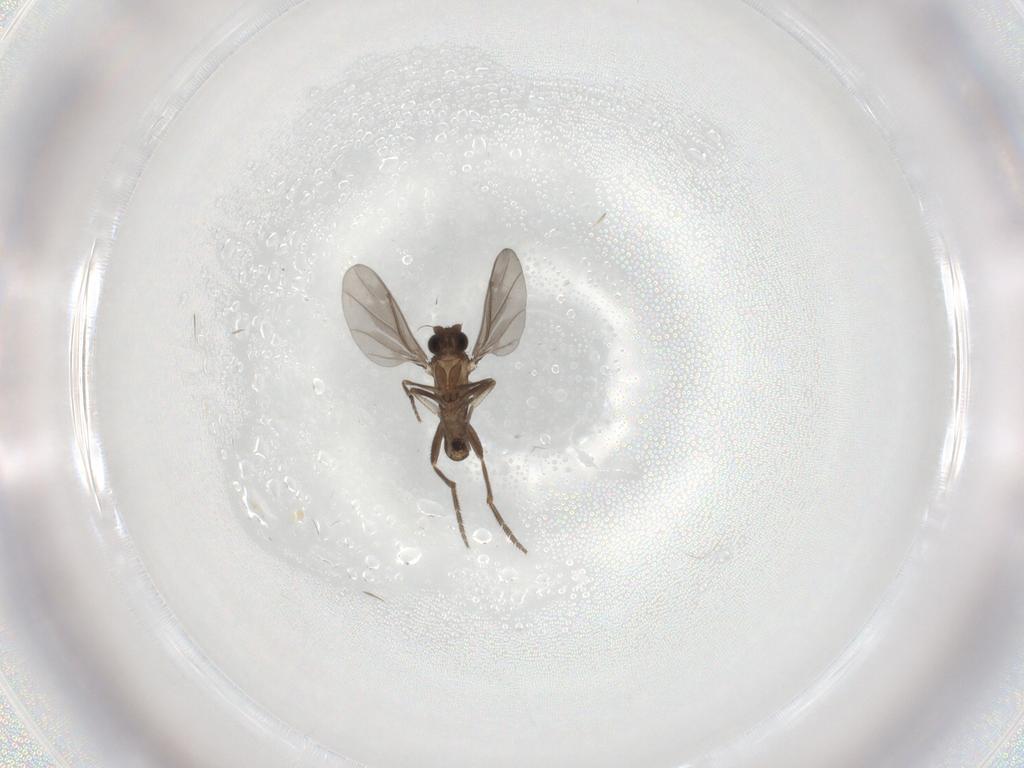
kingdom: Animalia
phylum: Arthropoda
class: Insecta
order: Diptera
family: Phoridae
